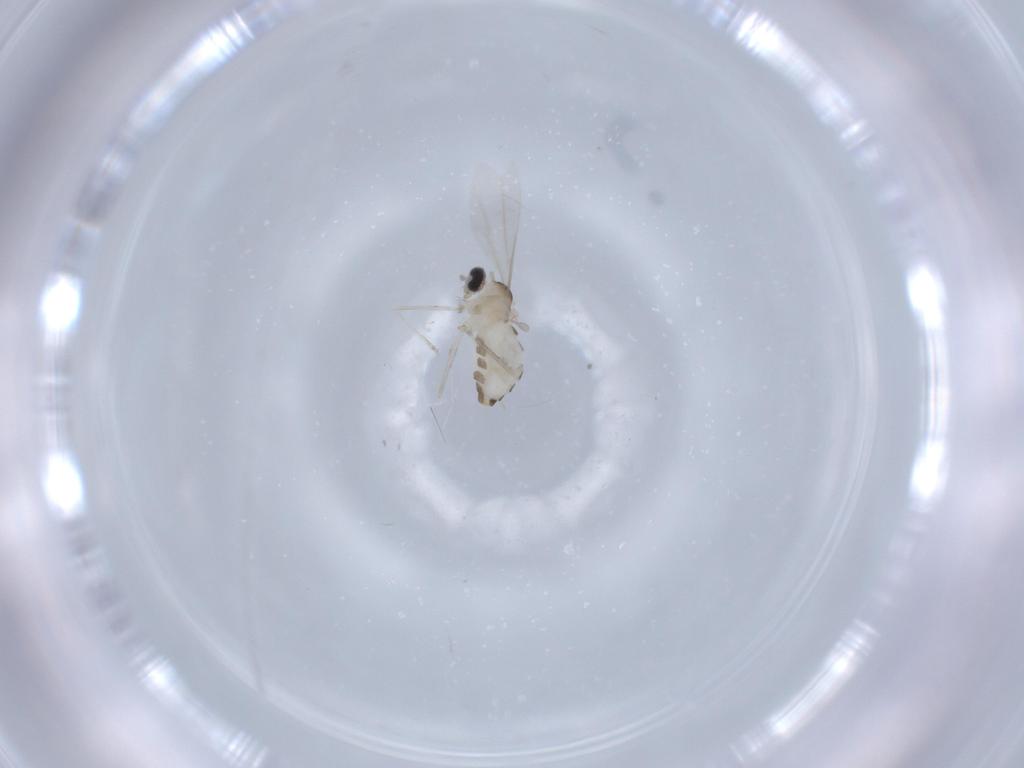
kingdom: Animalia
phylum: Arthropoda
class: Insecta
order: Diptera
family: Cecidomyiidae
